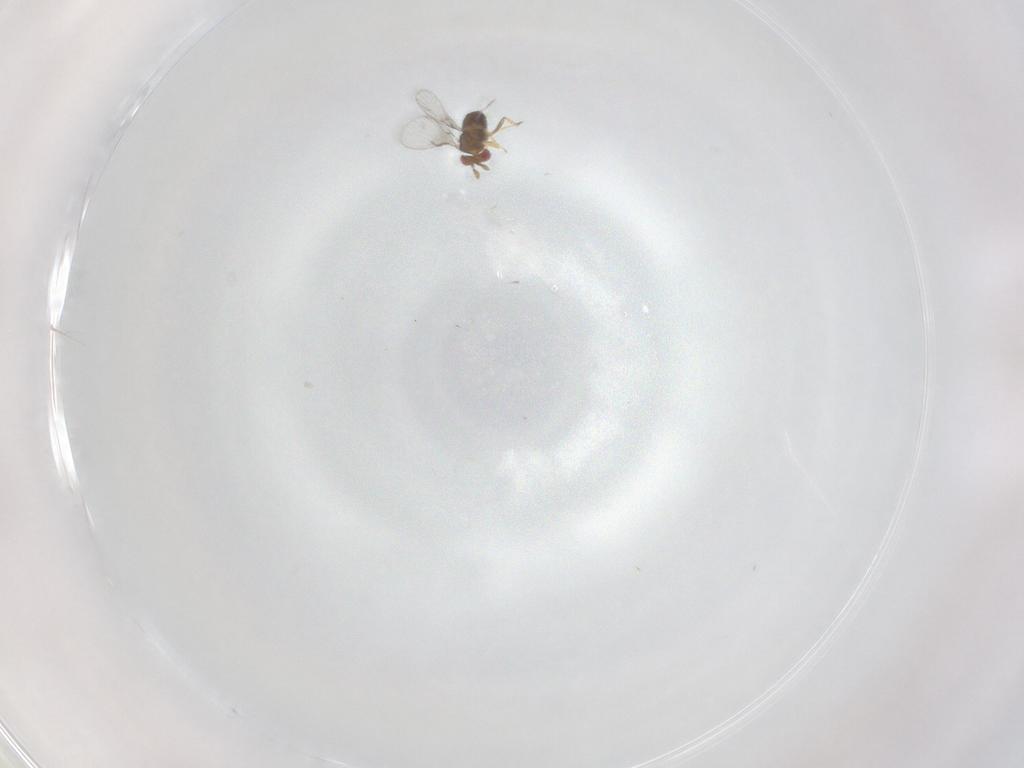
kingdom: Animalia
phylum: Arthropoda
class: Insecta
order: Hymenoptera
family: Trichogrammatidae
